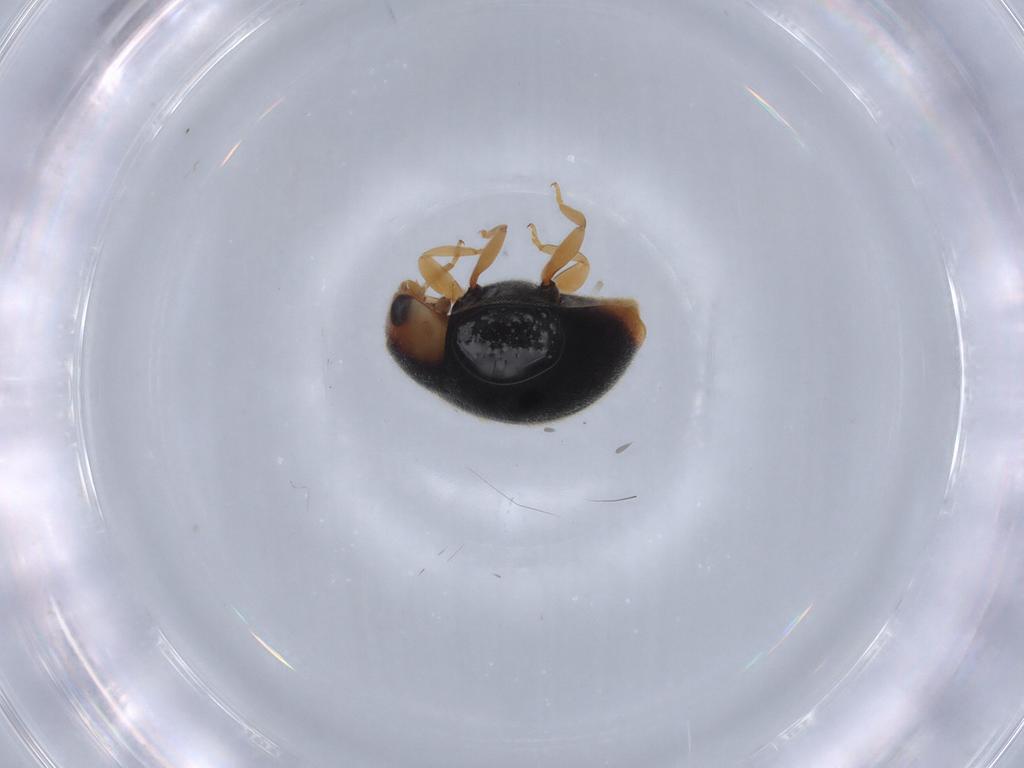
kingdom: Animalia
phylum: Arthropoda
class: Insecta
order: Coleoptera
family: Coccinellidae
